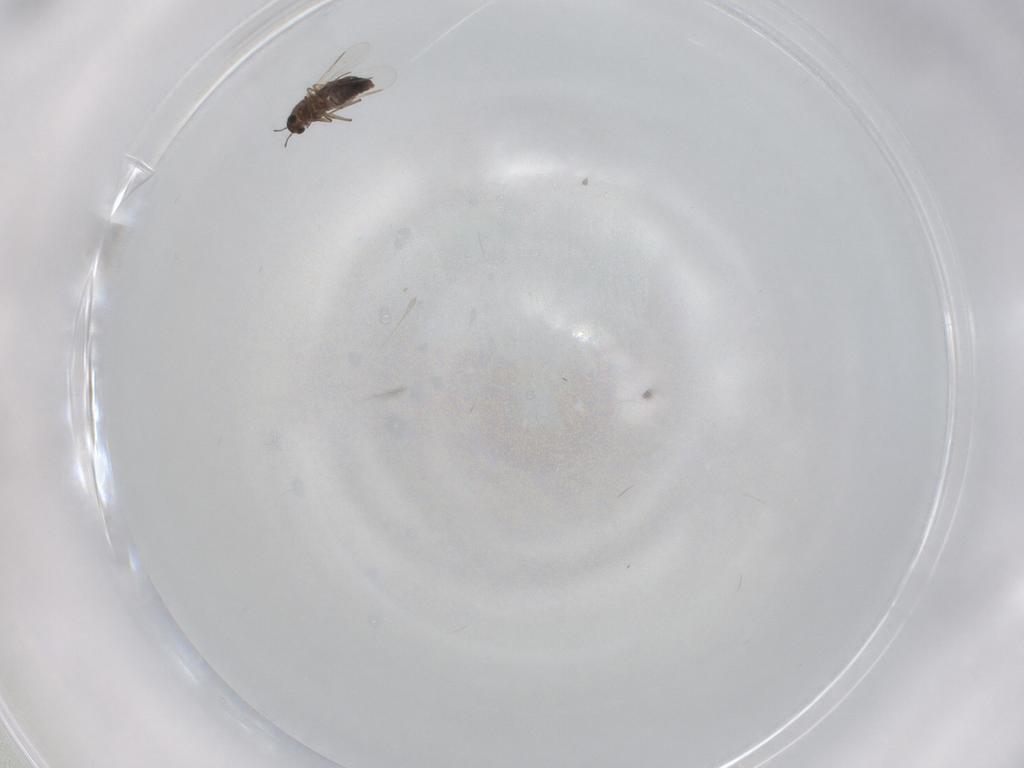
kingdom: Animalia
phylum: Arthropoda
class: Insecta
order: Diptera
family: Chironomidae
